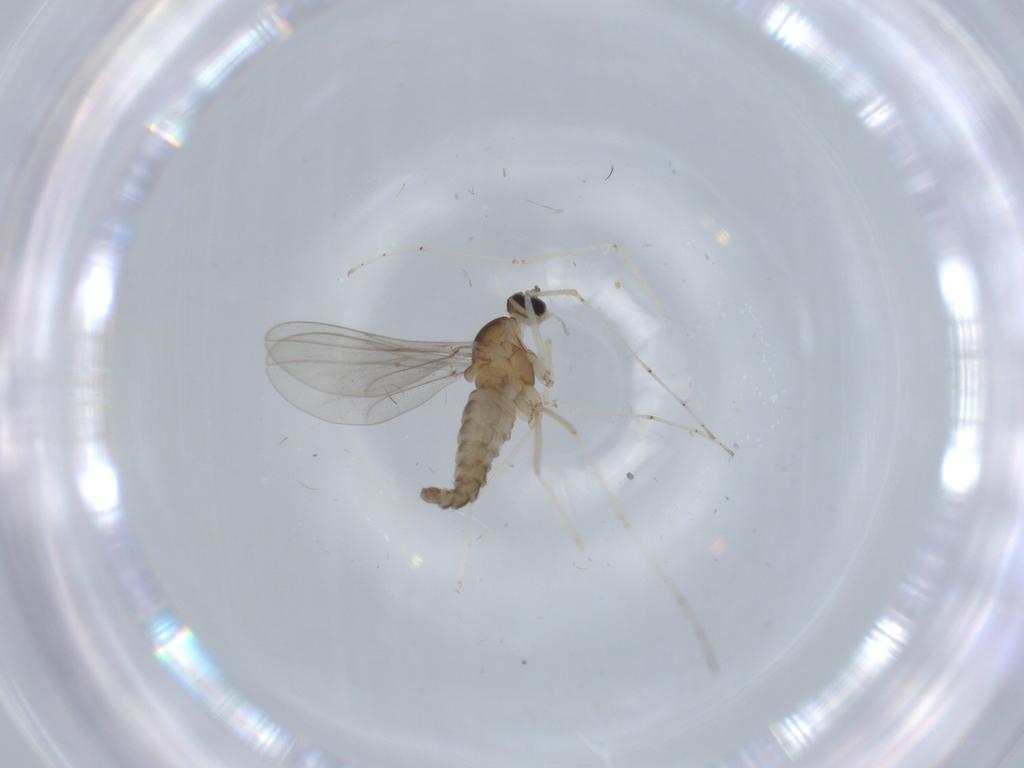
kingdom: Animalia
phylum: Arthropoda
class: Insecta
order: Diptera
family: Cecidomyiidae
